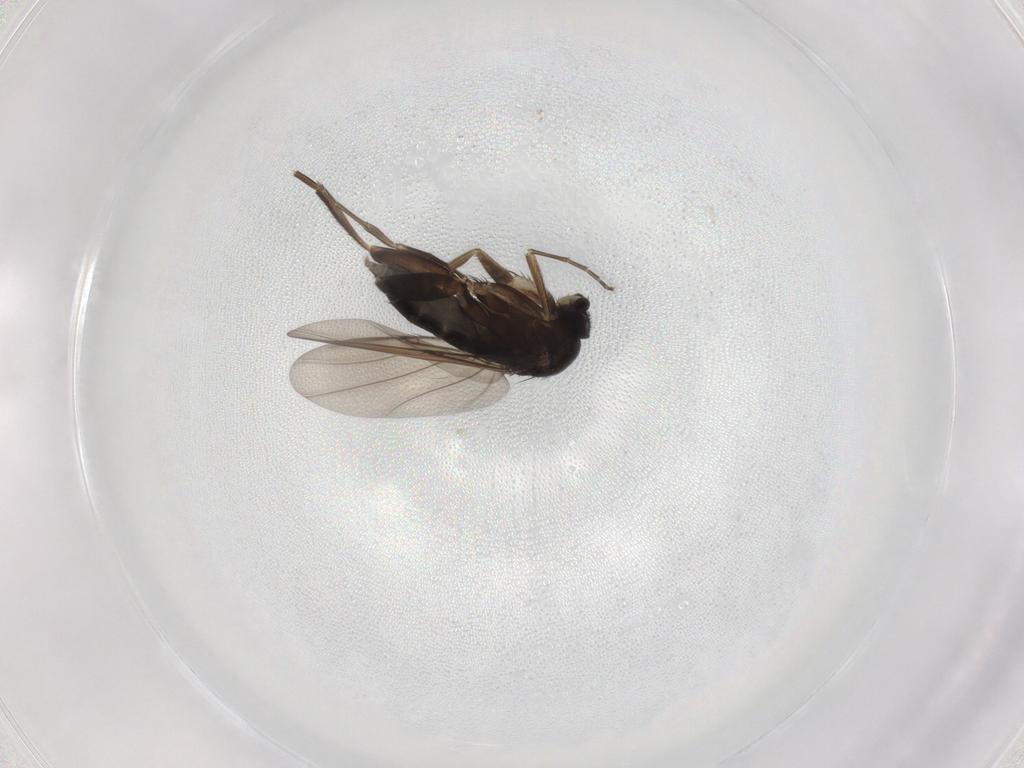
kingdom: Animalia
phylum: Arthropoda
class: Insecta
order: Diptera
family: Phoridae
